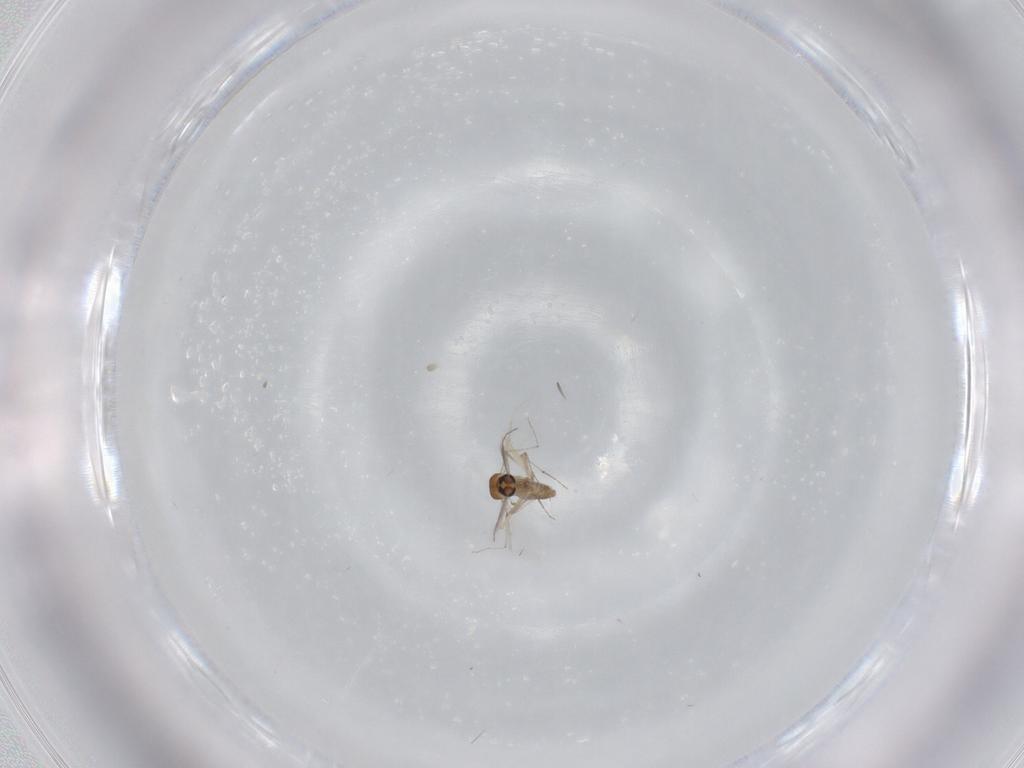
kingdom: Animalia
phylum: Arthropoda
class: Insecta
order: Diptera
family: Ceratopogonidae
